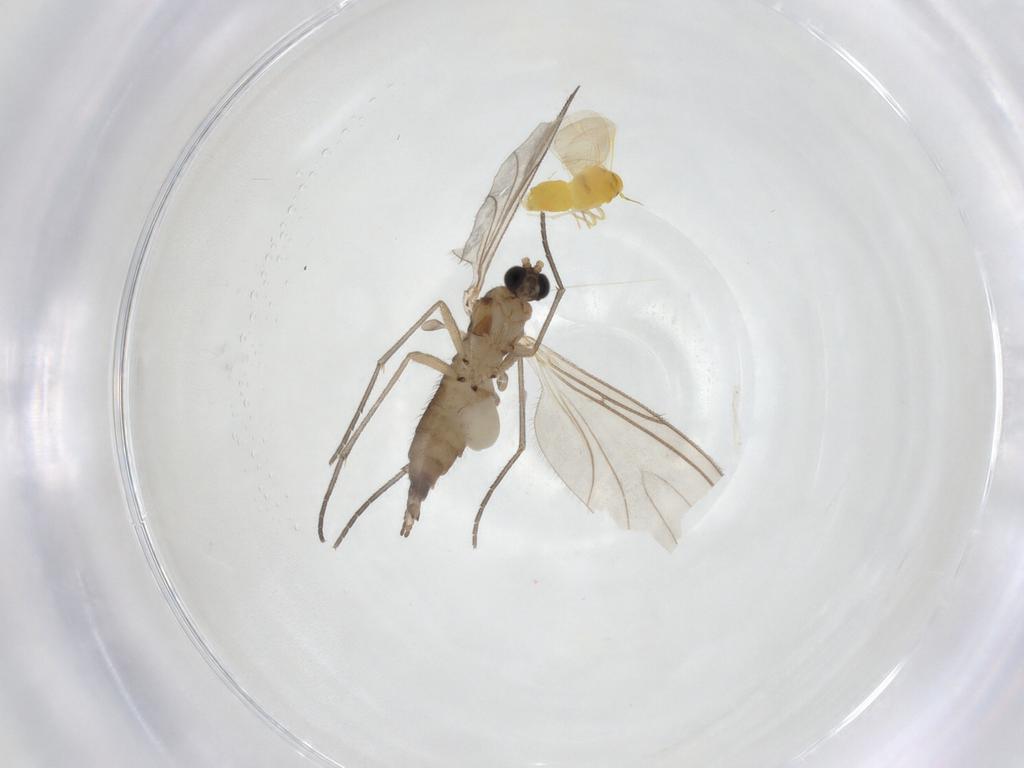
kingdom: Animalia
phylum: Arthropoda
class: Insecta
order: Diptera
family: Sciaridae
